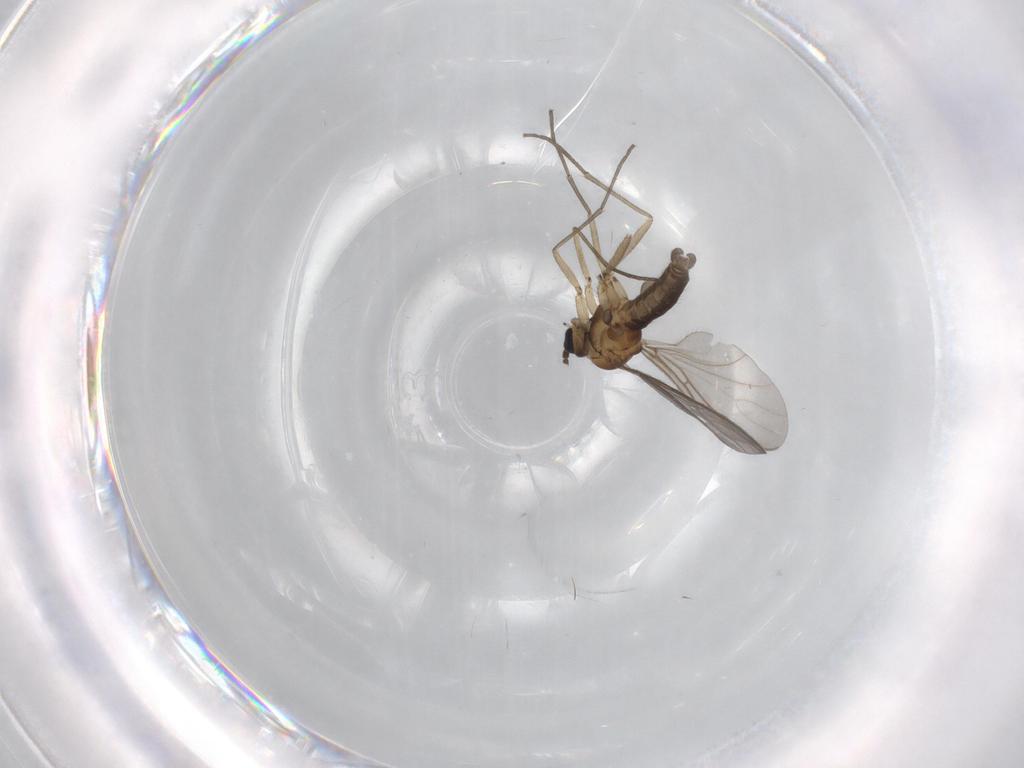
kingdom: Animalia
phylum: Arthropoda
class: Insecta
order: Diptera
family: Sciaridae
